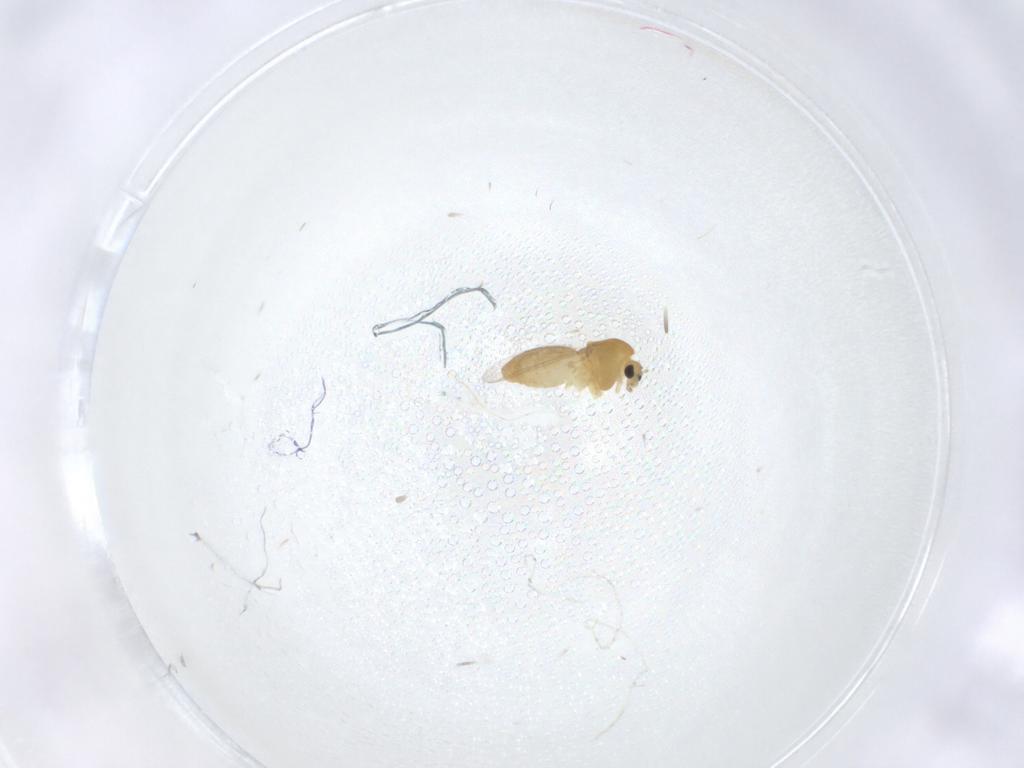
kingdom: Animalia
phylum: Arthropoda
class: Insecta
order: Diptera
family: Chironomidae
